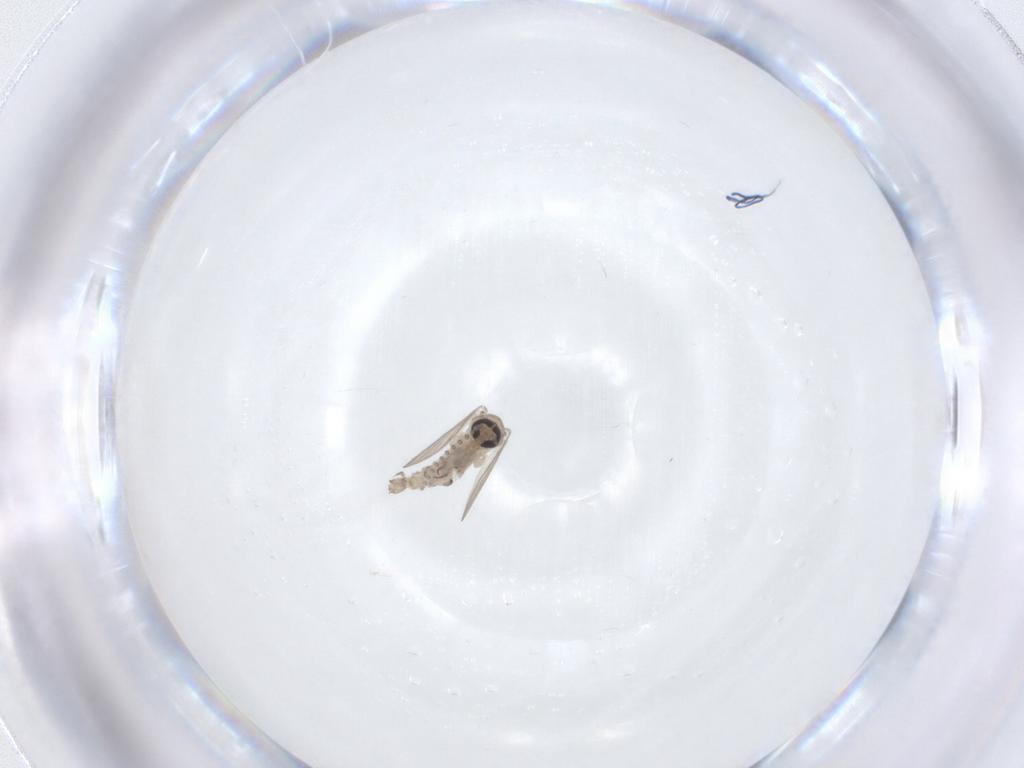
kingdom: Animalia
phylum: Arthropoda
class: Insecta
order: Diptera
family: Psychodidae
